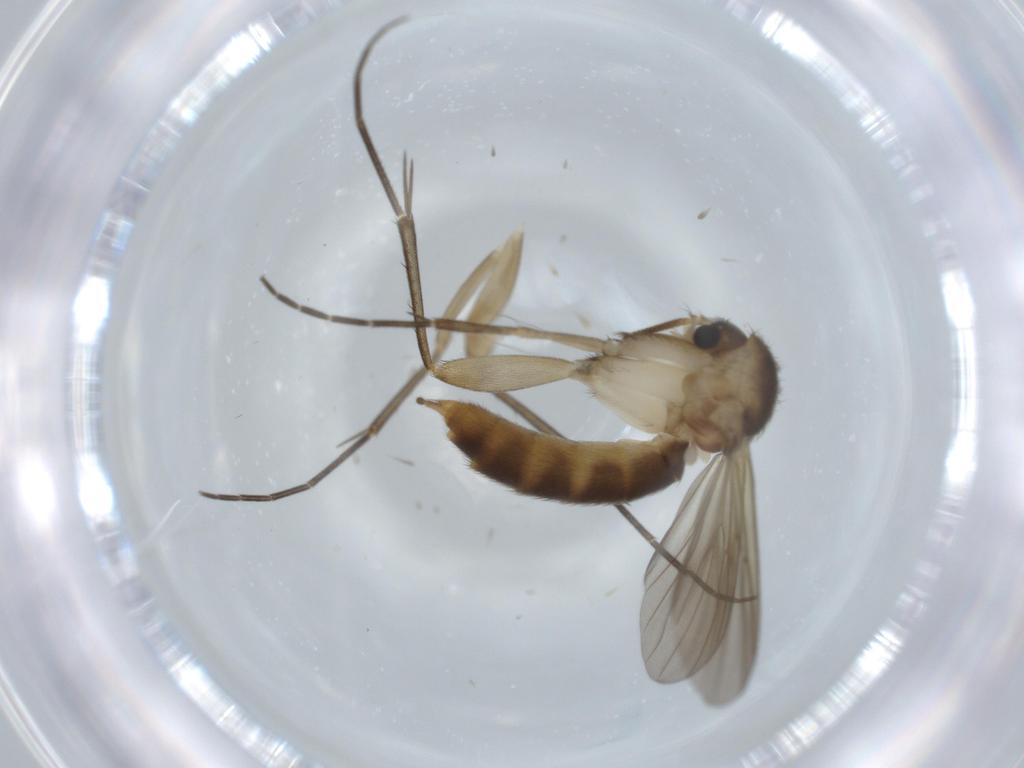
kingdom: Animalia
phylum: Arthropoda
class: Insecta
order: Diptera
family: Mycetophilidae
